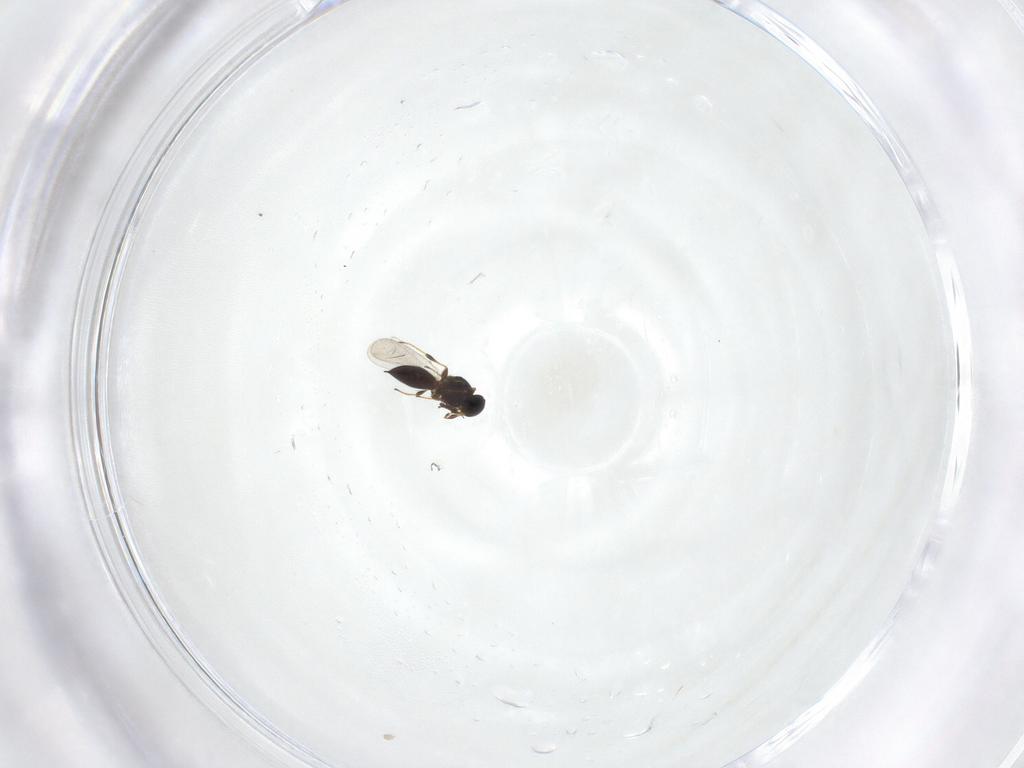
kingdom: Animalia
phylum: Arthropoda
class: Insecta
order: Hymenoptera
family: Platygastridae
